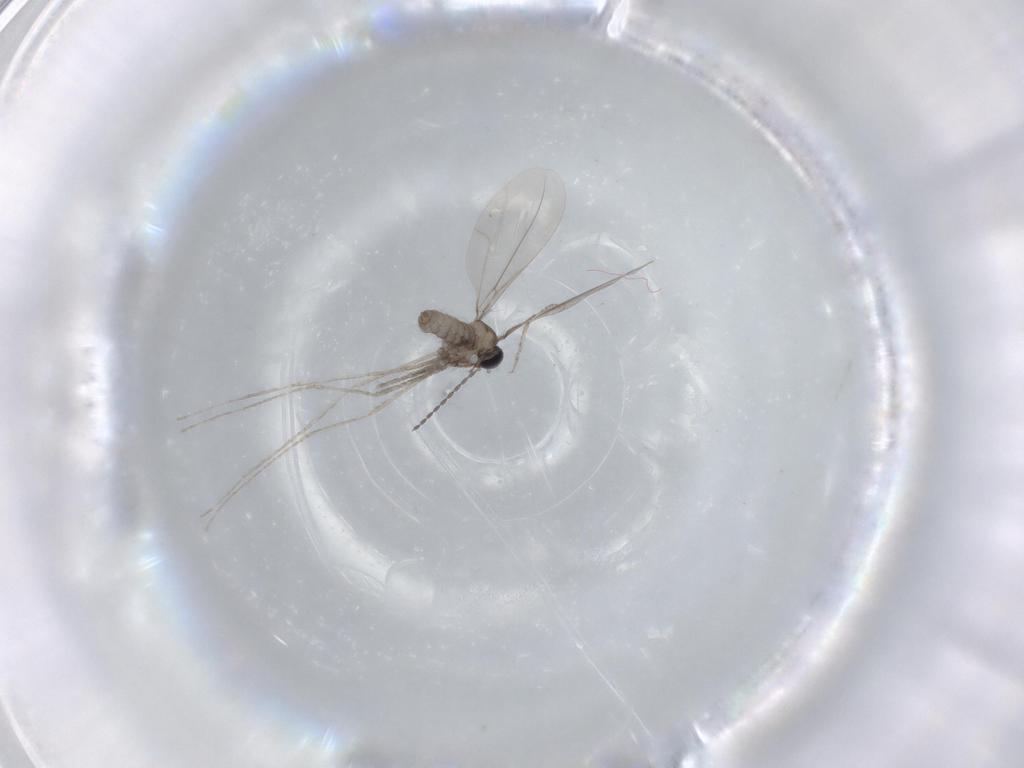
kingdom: Animalia
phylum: Arthropoda
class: Insecta
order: Diptera
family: Cecidomyiidae
